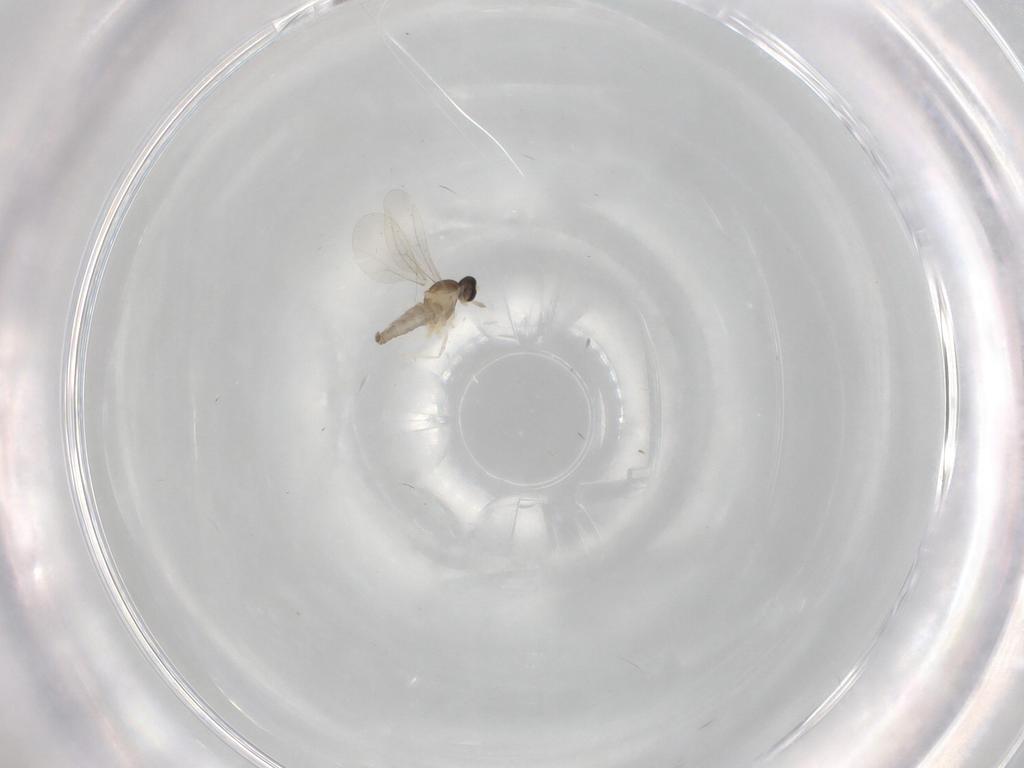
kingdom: Animalia
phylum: Arthropoda
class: Insecta
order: Diptera
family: Cecidomyiidae
